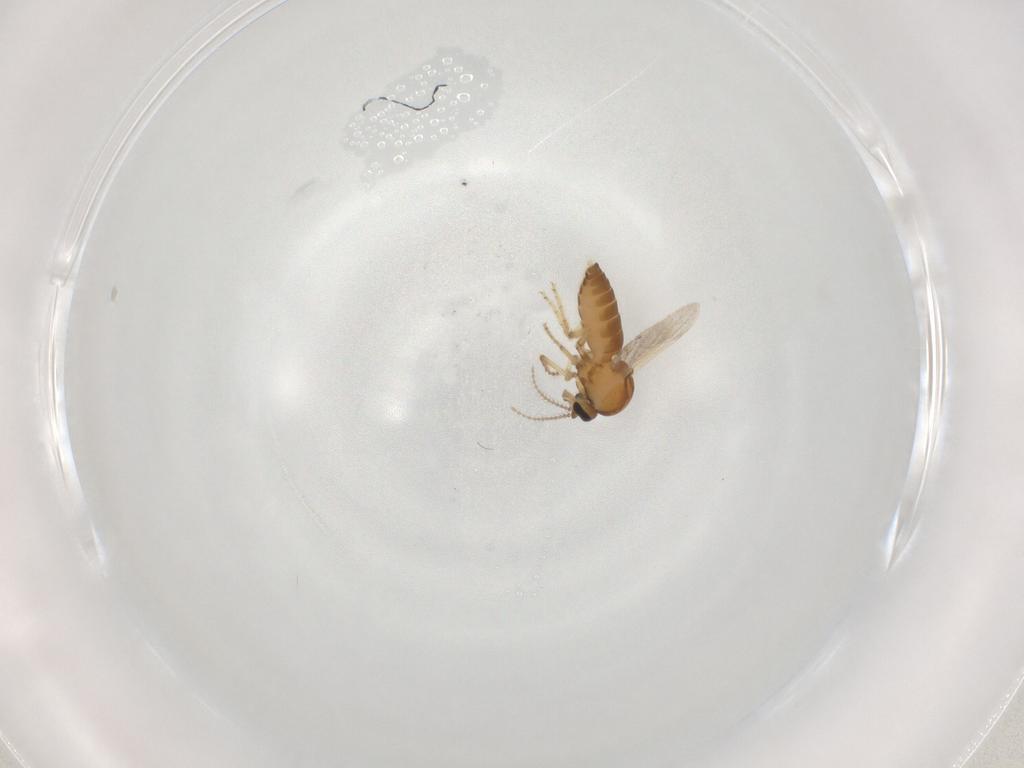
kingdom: Animalia
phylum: Arthropoda
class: Insecta
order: Diptera
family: Ceratopogonidae
